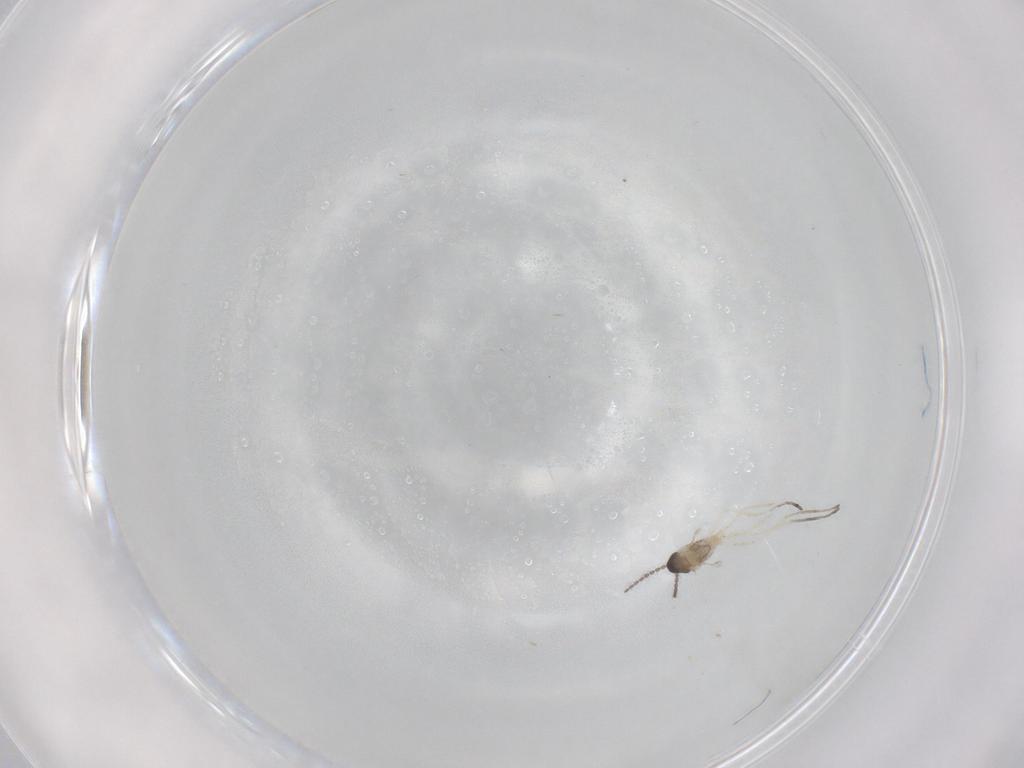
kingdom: Animalia
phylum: Arthropoda
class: Insecta
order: Diptera
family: Cecidomyiidae
